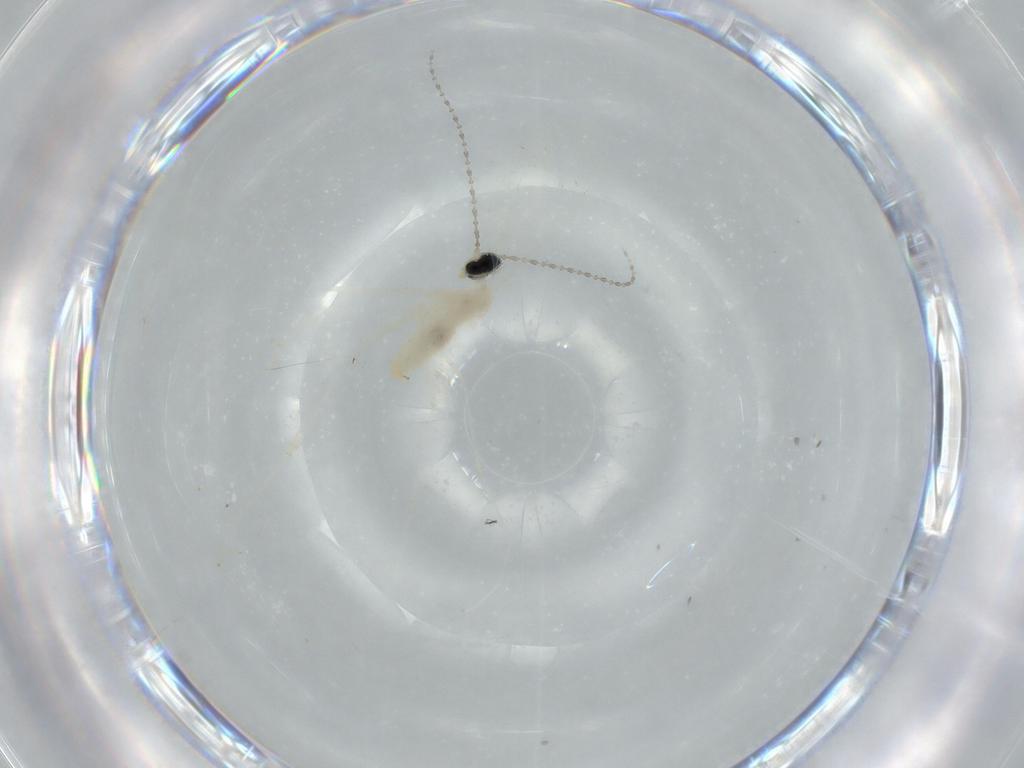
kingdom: Animalia
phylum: Arthropoda
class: Insecta
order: Diptera
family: Cecidomyiidae
